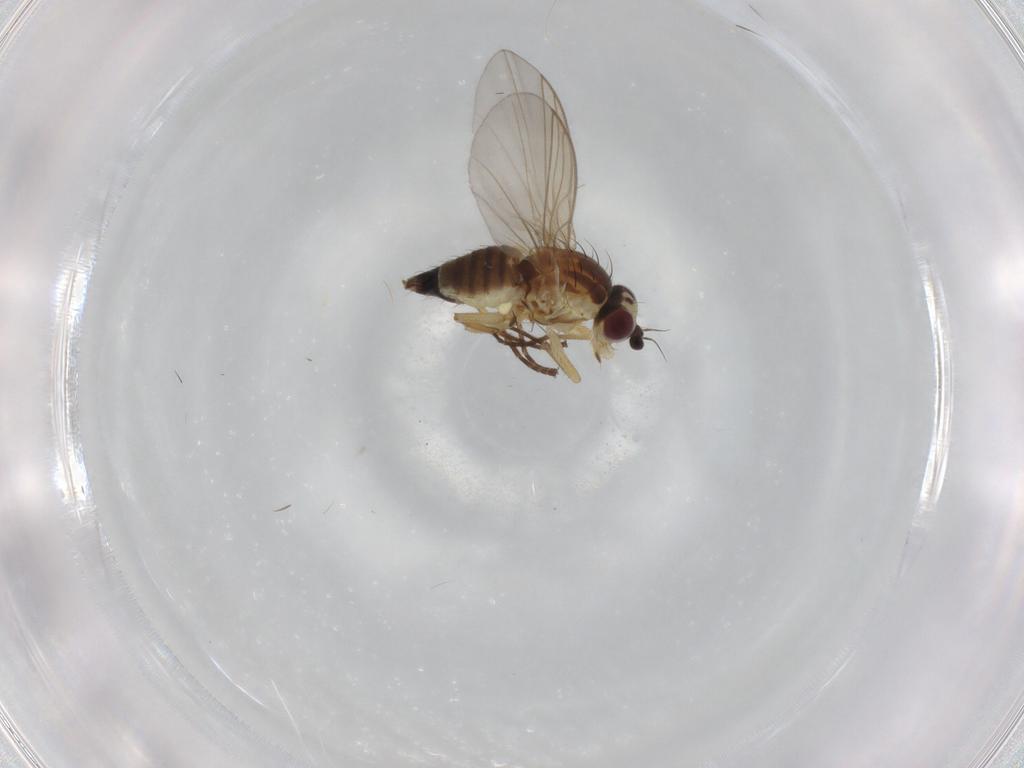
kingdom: Animalia
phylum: Arthropoda
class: Insecta
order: Diptera
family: Agromyzidae
